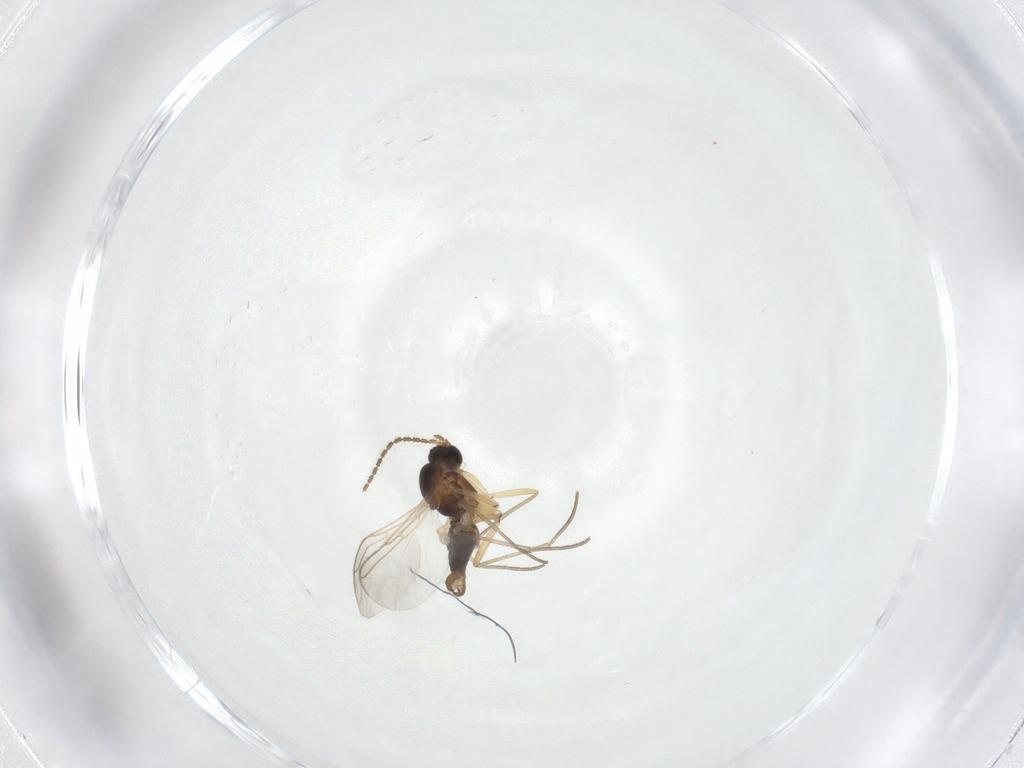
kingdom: Animalia
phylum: Arthropoda
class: Insecta
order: Diptera
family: Sciaridae
